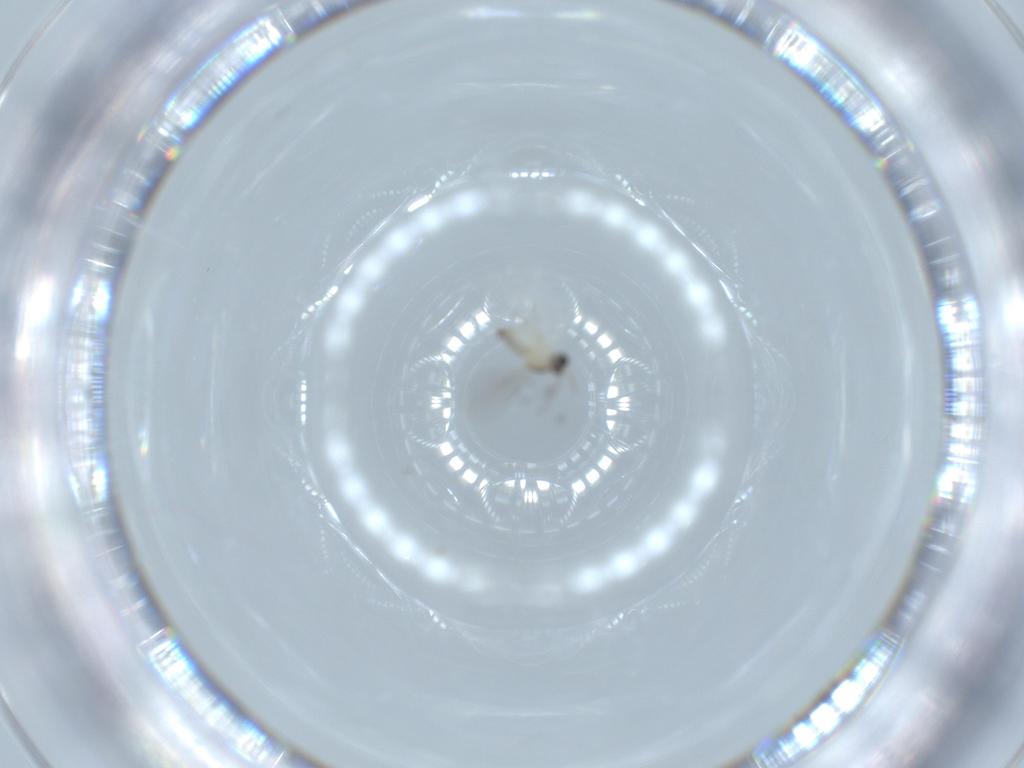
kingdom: Animalia
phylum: Arthropoda
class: Insecta
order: Diptera
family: Cecidomyiidae
